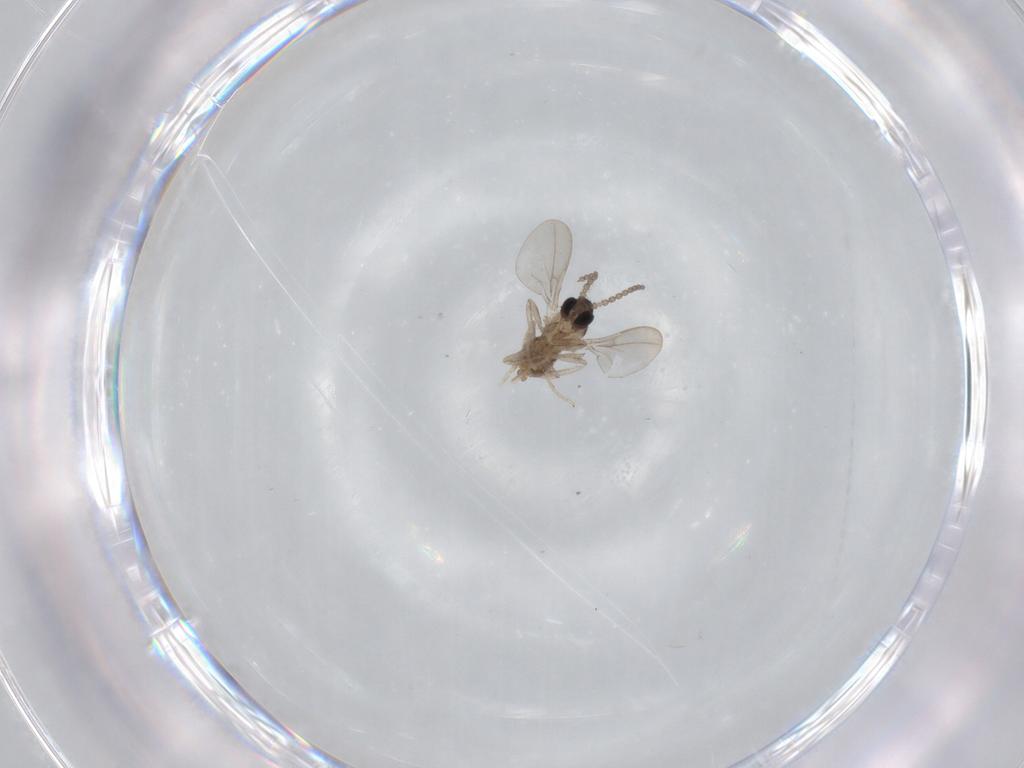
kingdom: Animalia
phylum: Arthropoda
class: Insecta
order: Diptera
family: Cecidomyiidae
